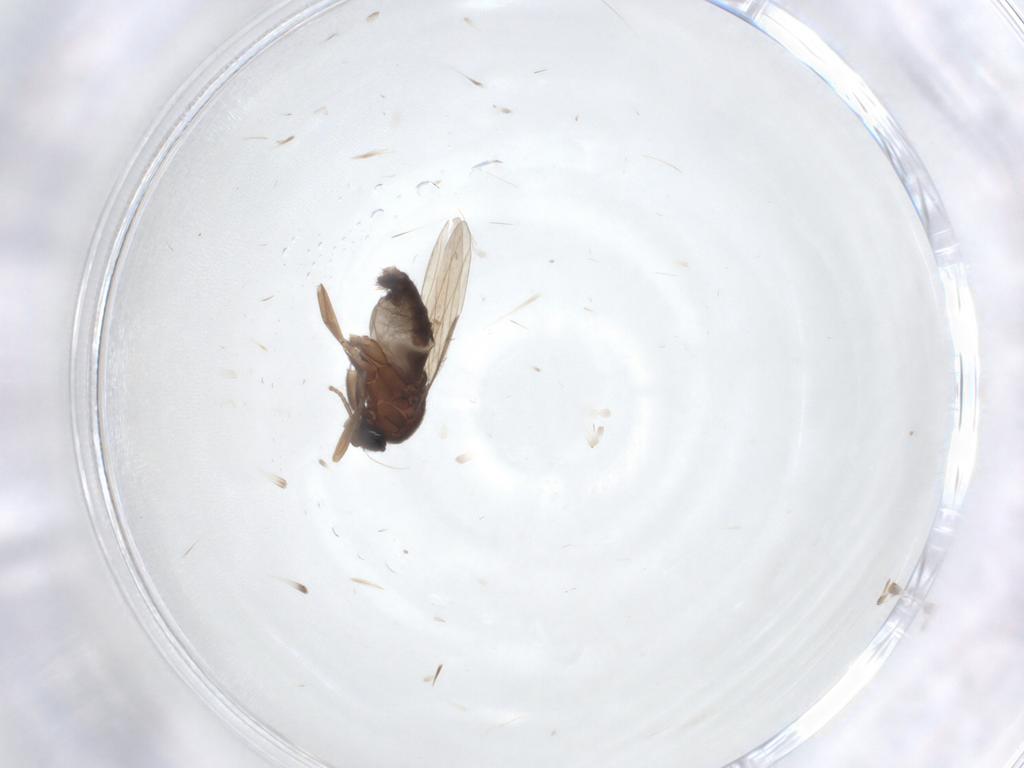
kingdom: Animalia
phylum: Arthropoda
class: Insecta
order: Diptera
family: Phoridae
